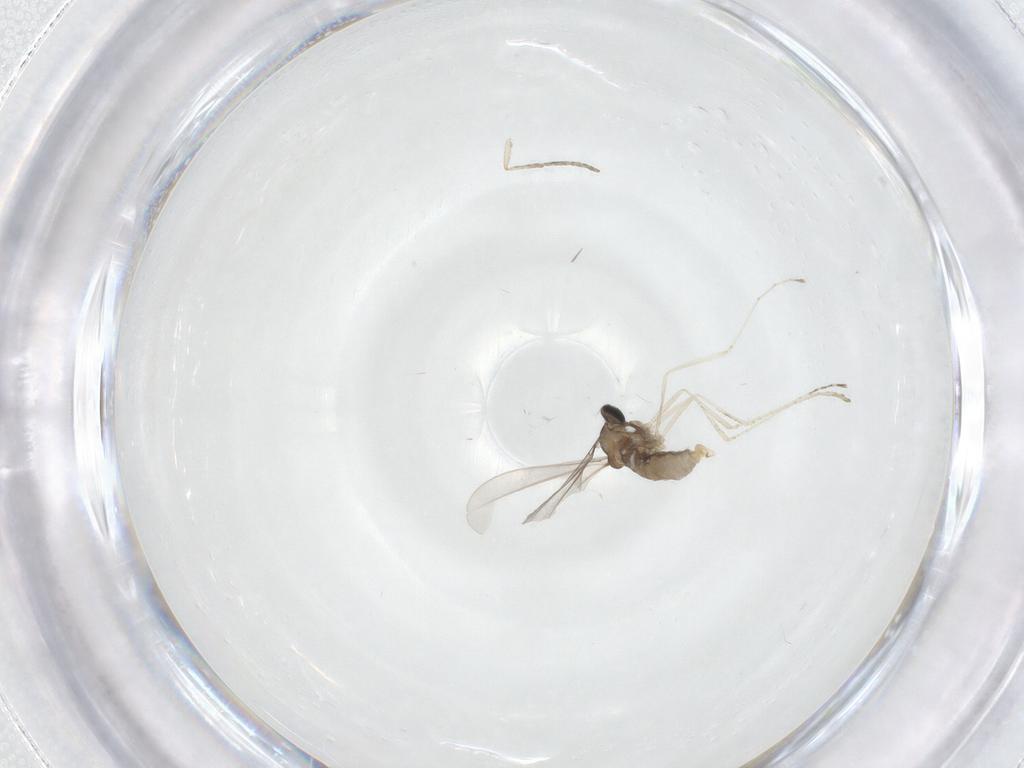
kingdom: Animalia
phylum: Arthropoda
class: Insecta
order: Diptera
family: Cecidomyiidae
